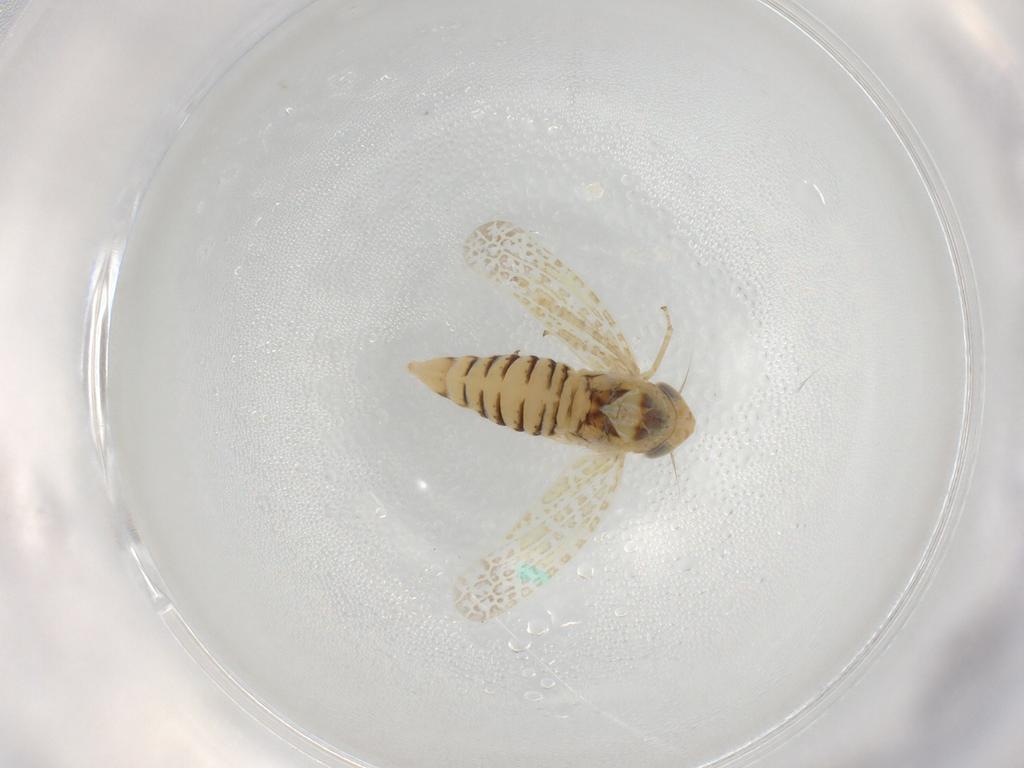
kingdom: Animalia
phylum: Arthropoda
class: Insecta
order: Hemiptera
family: Cicadellidae
